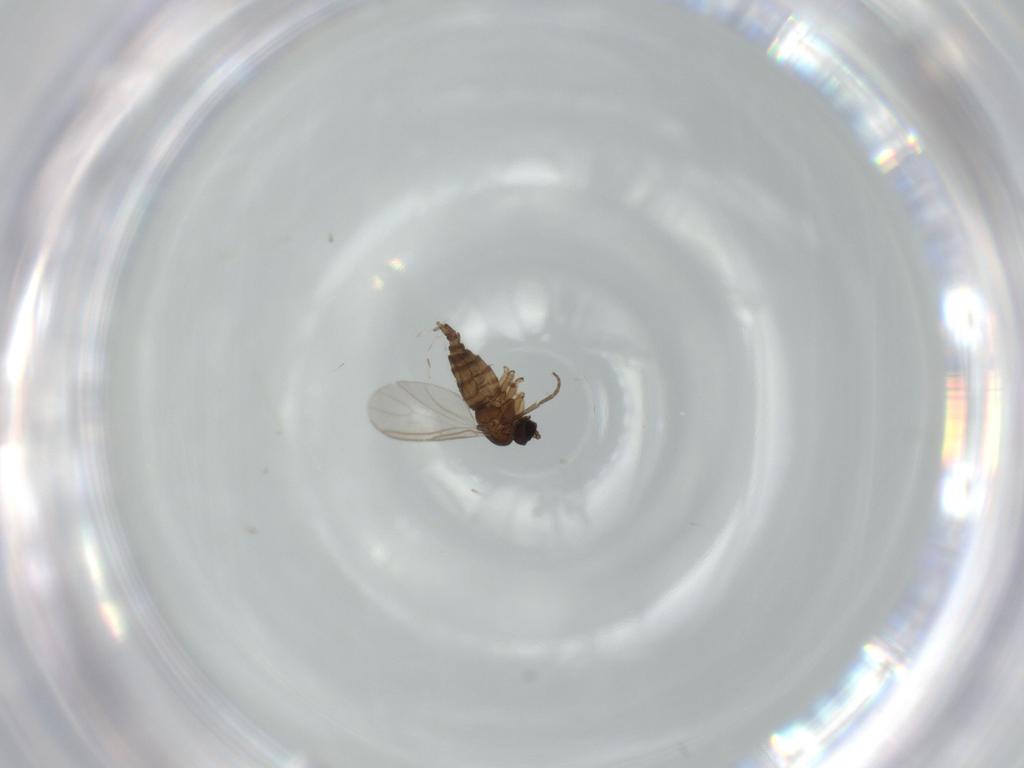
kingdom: Animalia
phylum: Arthropoda
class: Insecta
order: Diptera
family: Sciaridae
